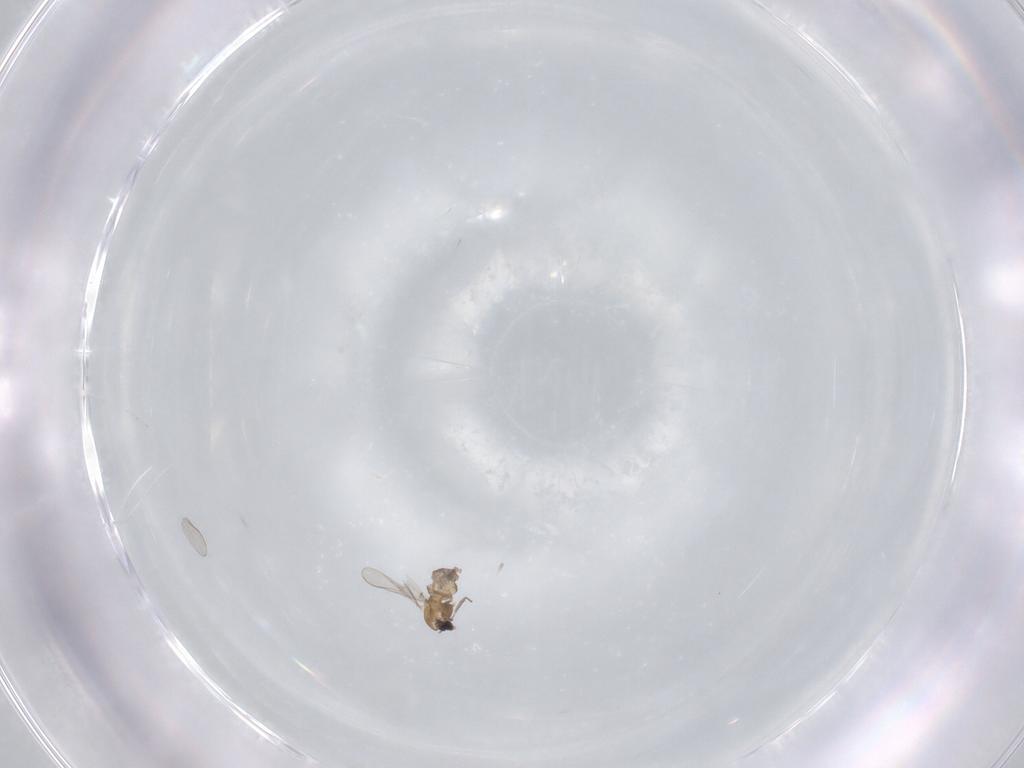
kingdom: Animalia
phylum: Arthropoda
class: Insecta
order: Diptera
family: Chironomidae
